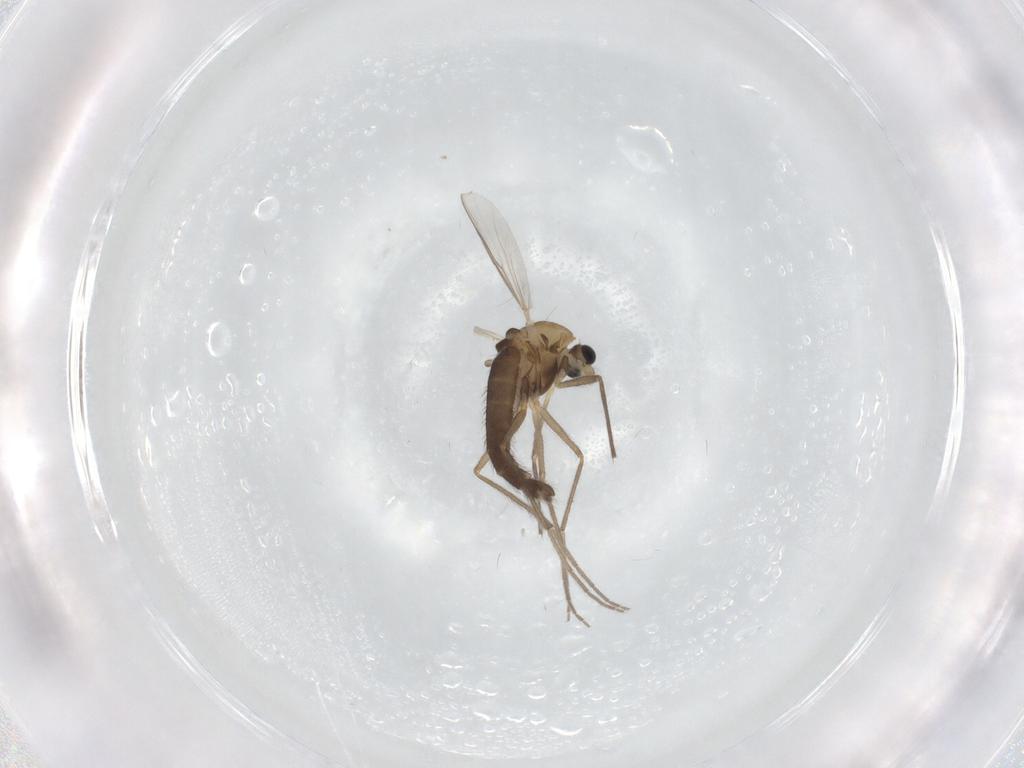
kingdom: Animalia
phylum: Arthropoda
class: Insecta
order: Diptera
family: Chironomidae
